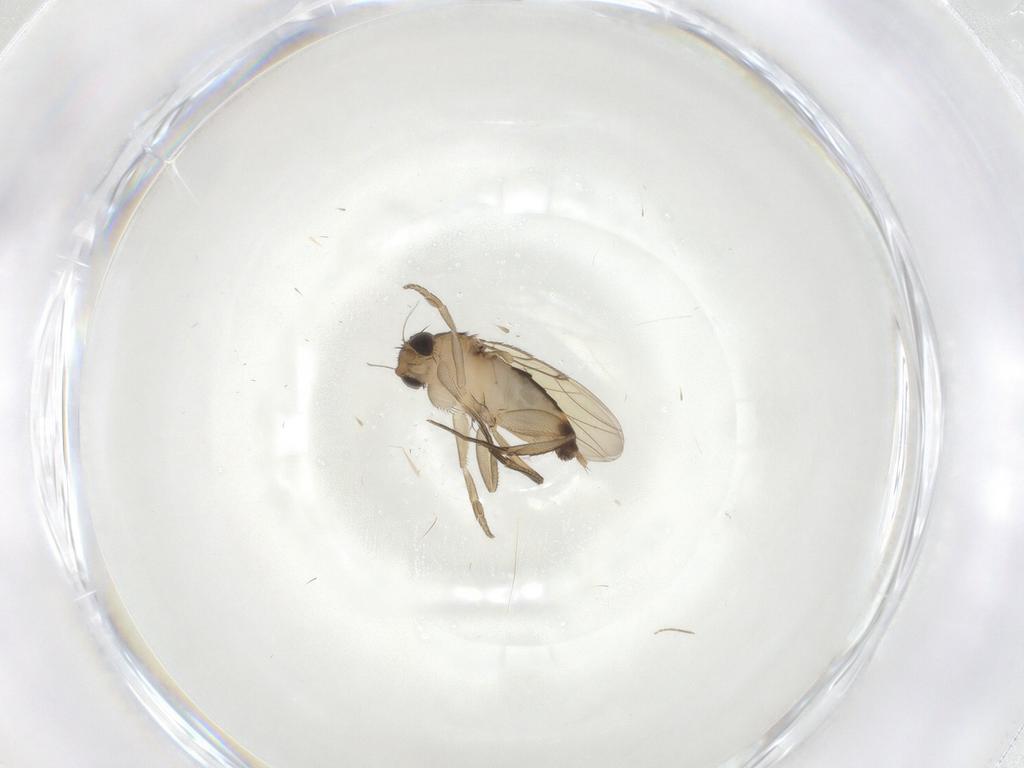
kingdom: Animalia
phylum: Arthropoda
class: Insecta
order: Diptera
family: Phoridae
